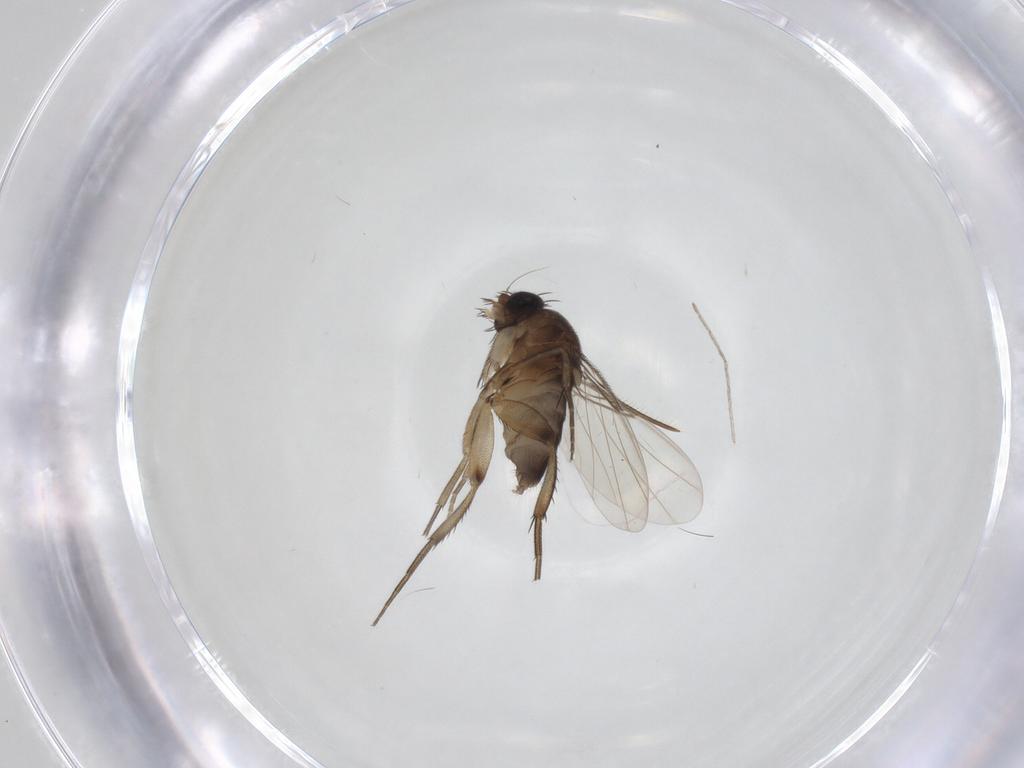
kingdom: Animalia
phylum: Arthropoda
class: Insecta
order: Diptera
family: Phoridae
